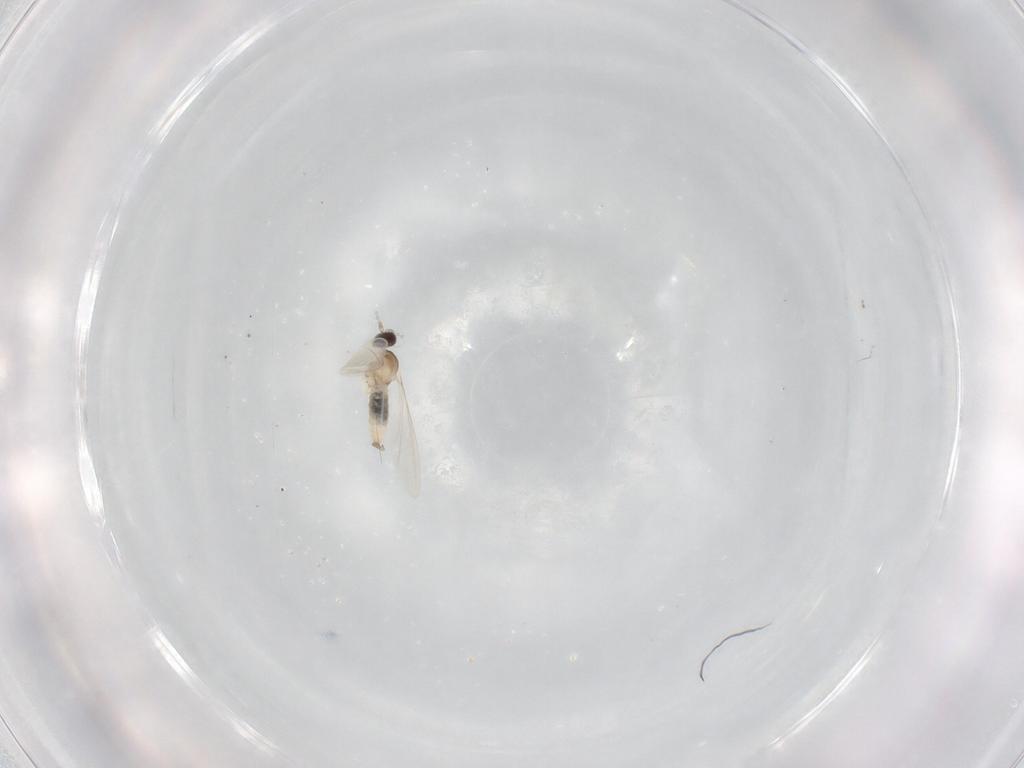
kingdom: Animalia
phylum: Arthropoda
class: Insecta
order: Diptera
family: Cecidomyiidae
